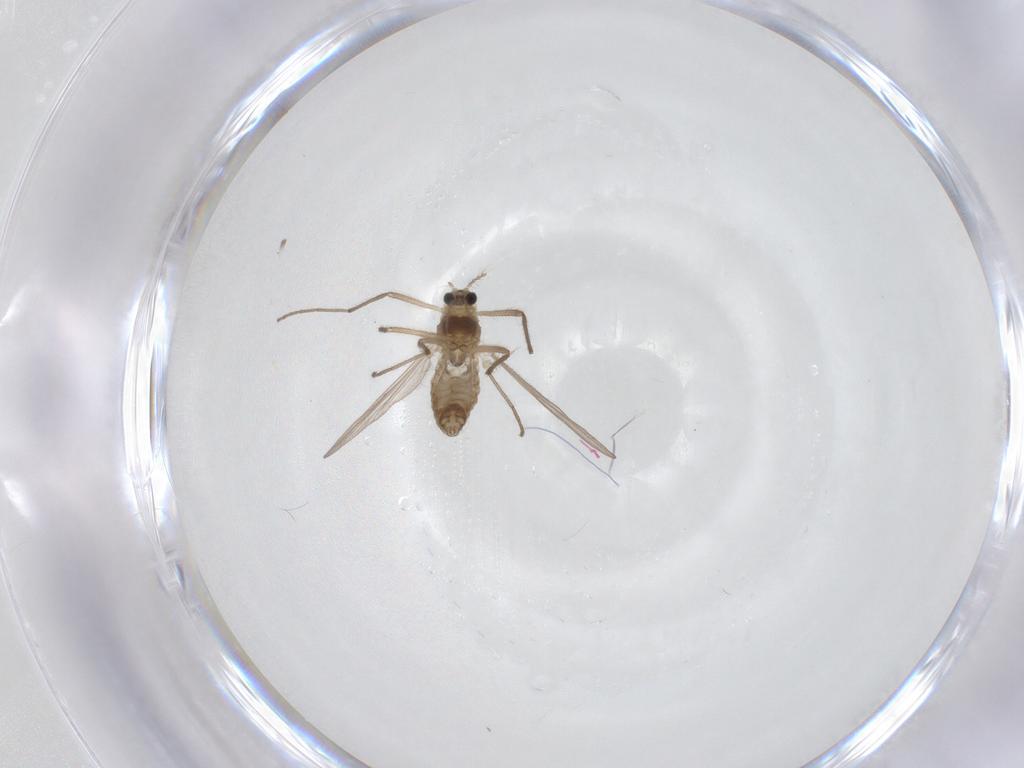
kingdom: Animalia
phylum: Arthropoda
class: Insecta
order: Diptera
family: Chironomidae
